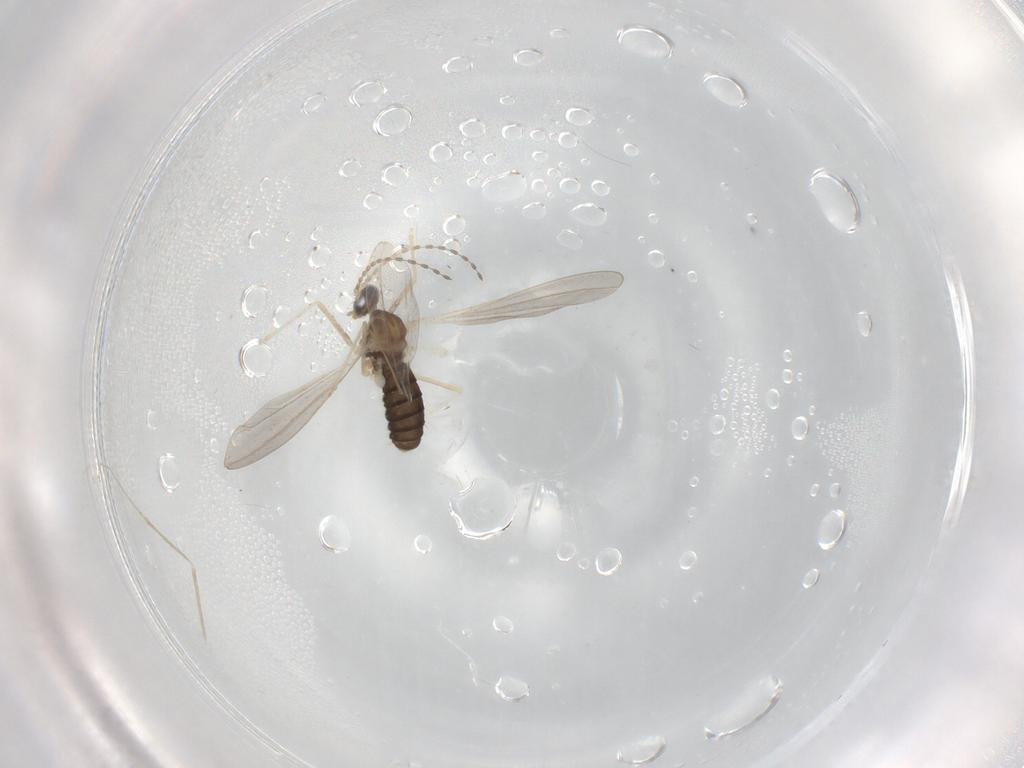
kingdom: Animalia
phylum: Arthropoda
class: Insecta
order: Diptera
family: Cecidomyiidae
